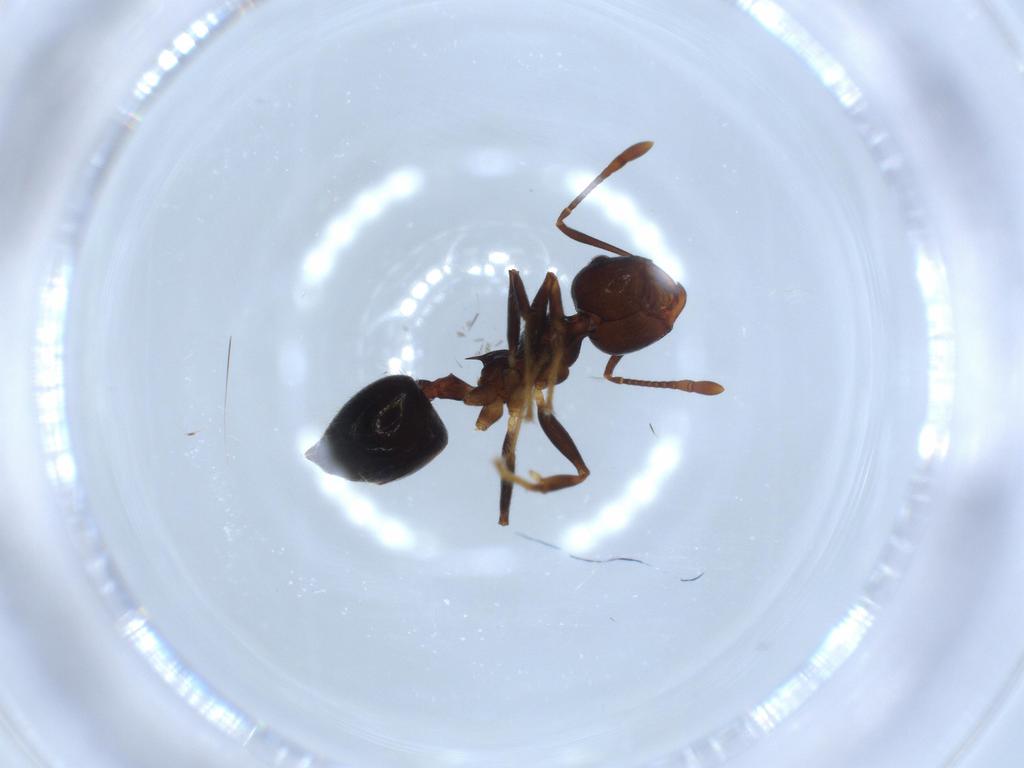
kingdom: Animalia
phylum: Arthropoda
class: Insecta
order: Hymenoptera
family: Formicidae
